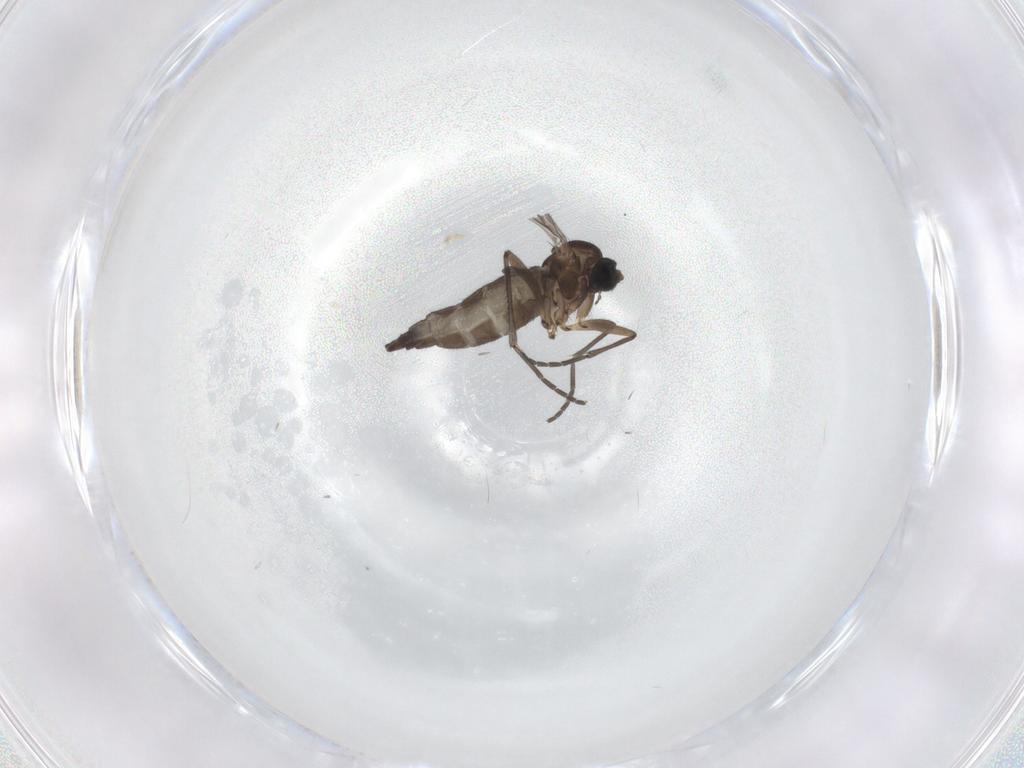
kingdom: Animalia
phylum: Arthropoda
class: Insecta
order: Diptera
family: Sciaridae
